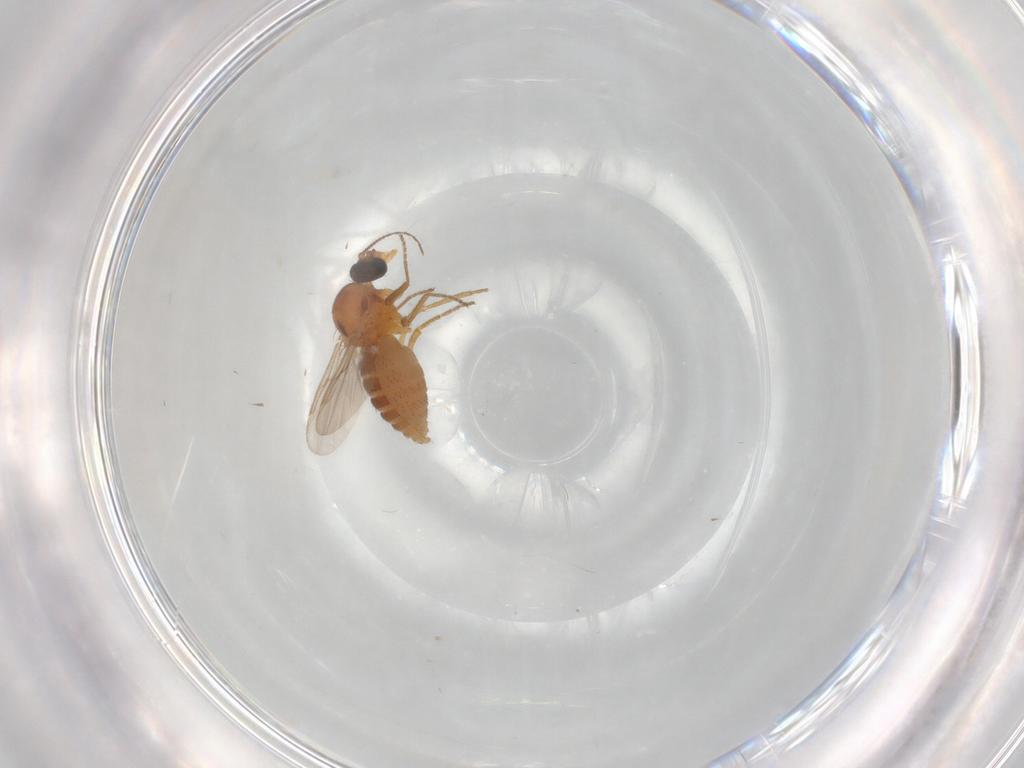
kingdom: Animalia
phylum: Arthropoda
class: Insecta
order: Diptera
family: Ceratopogonidae
